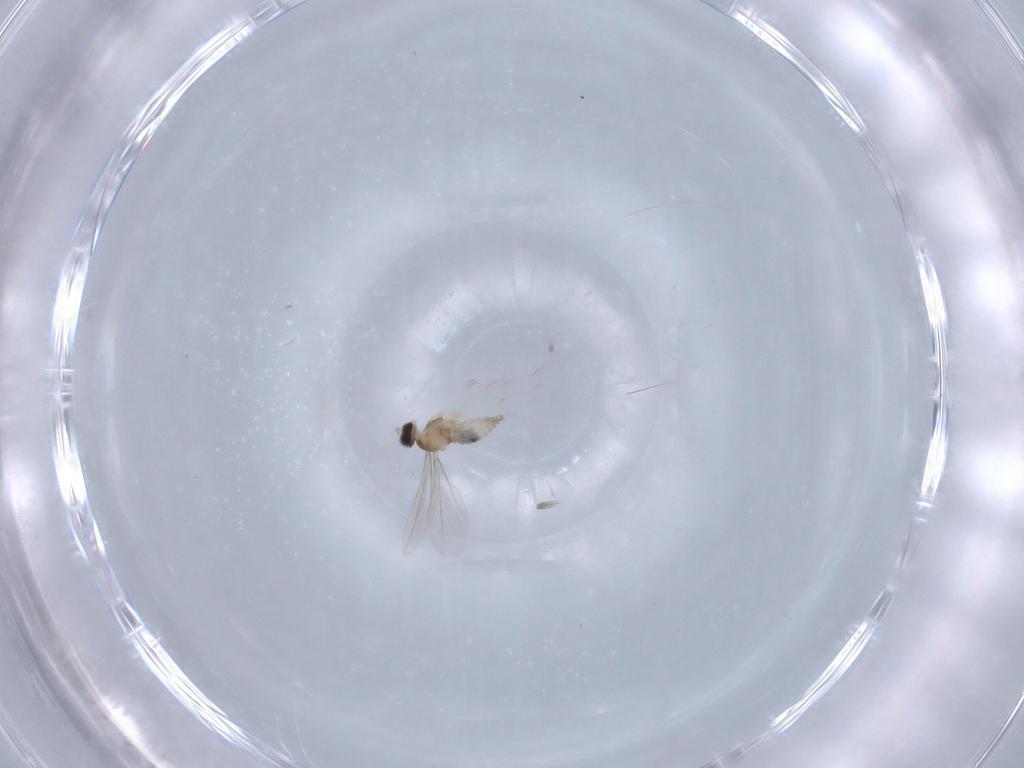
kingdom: Animalia
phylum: Arthropoda
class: Insecta
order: Diptera
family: Cecidomyiidae
